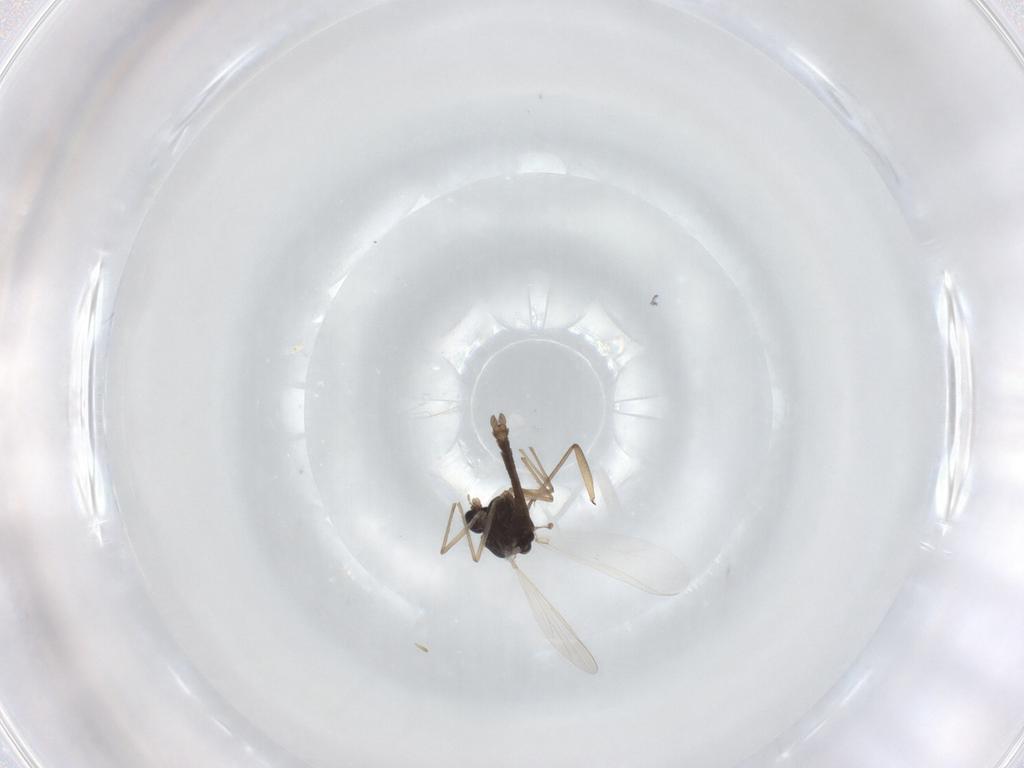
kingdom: Animalia
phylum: Arthropoda
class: Insecta
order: Diptera
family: Chironomidae
